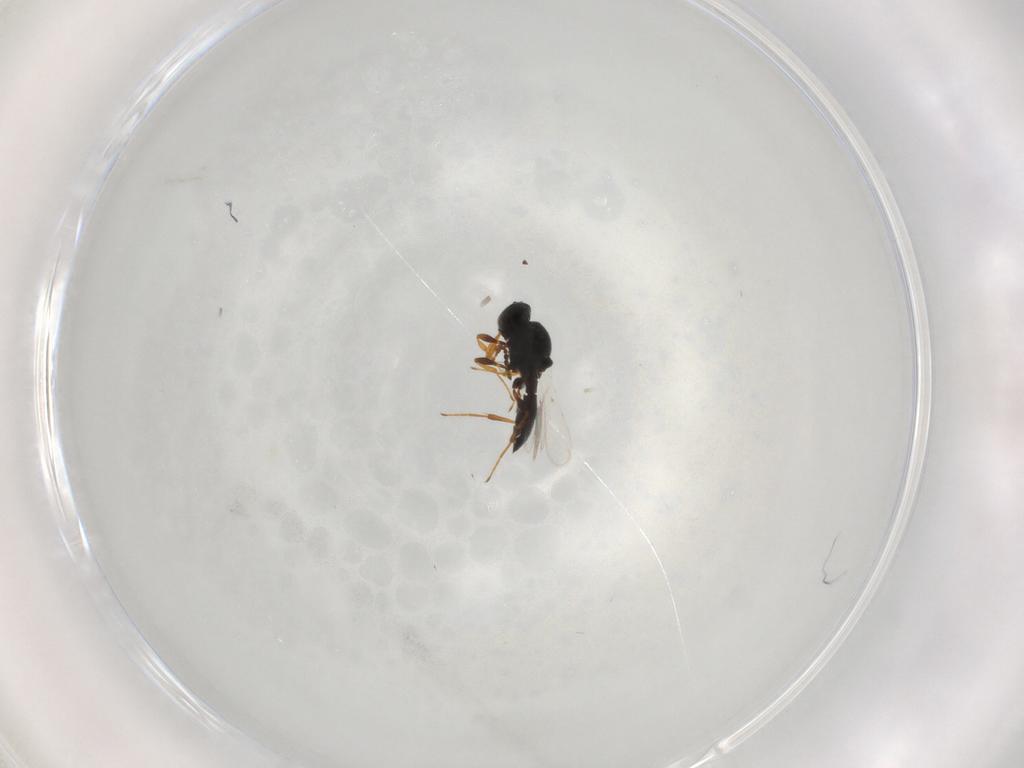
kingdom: Animalia
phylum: Arthropoda
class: Insecta
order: Hymenoptera
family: Platygastridae
